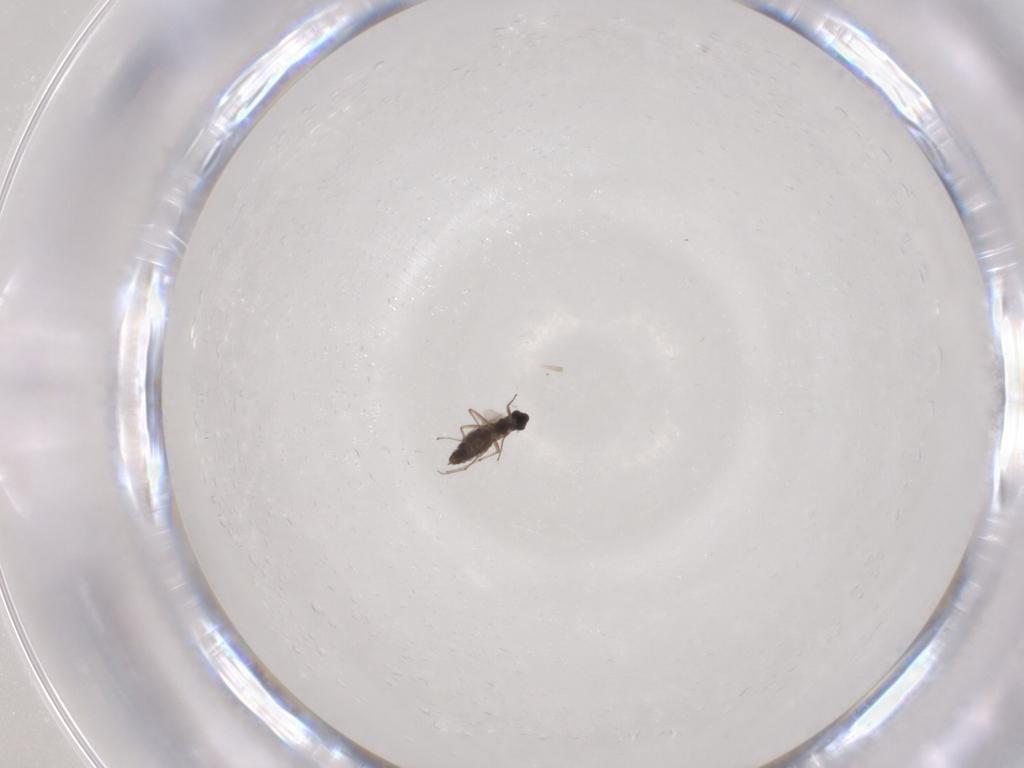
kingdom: Animalia
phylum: Arthropoda
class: Insecta
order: Diptera
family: Chironomidae
